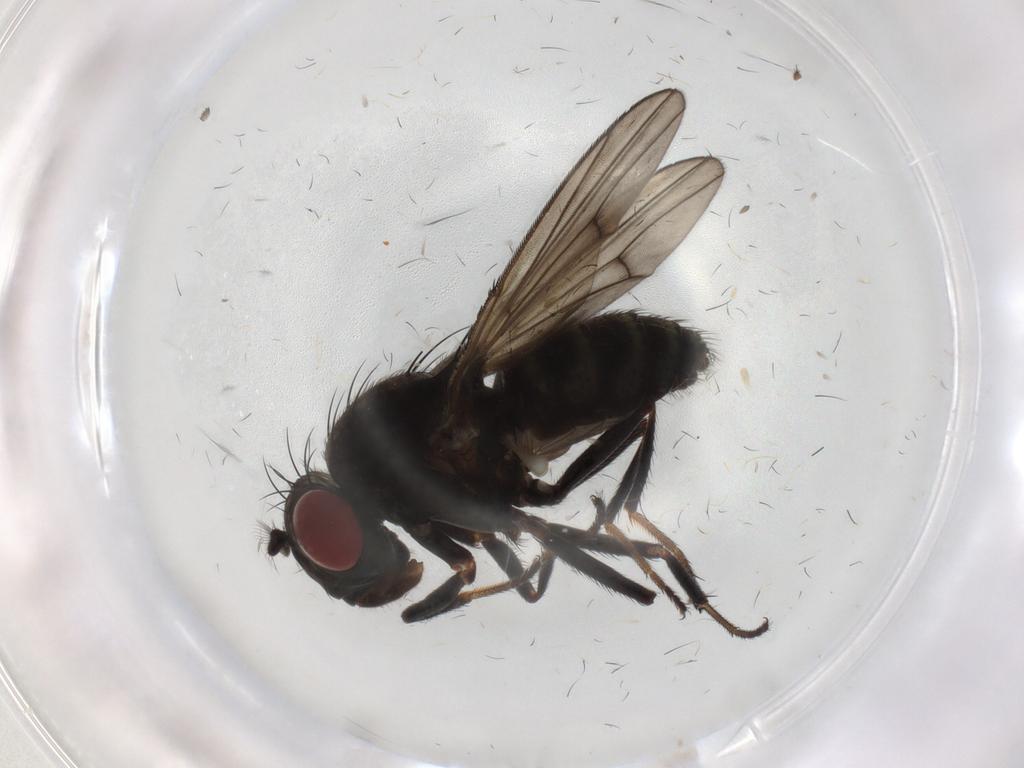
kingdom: Animalia
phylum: Arthropoda
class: Insecta
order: Diptera
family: Ephydridae
